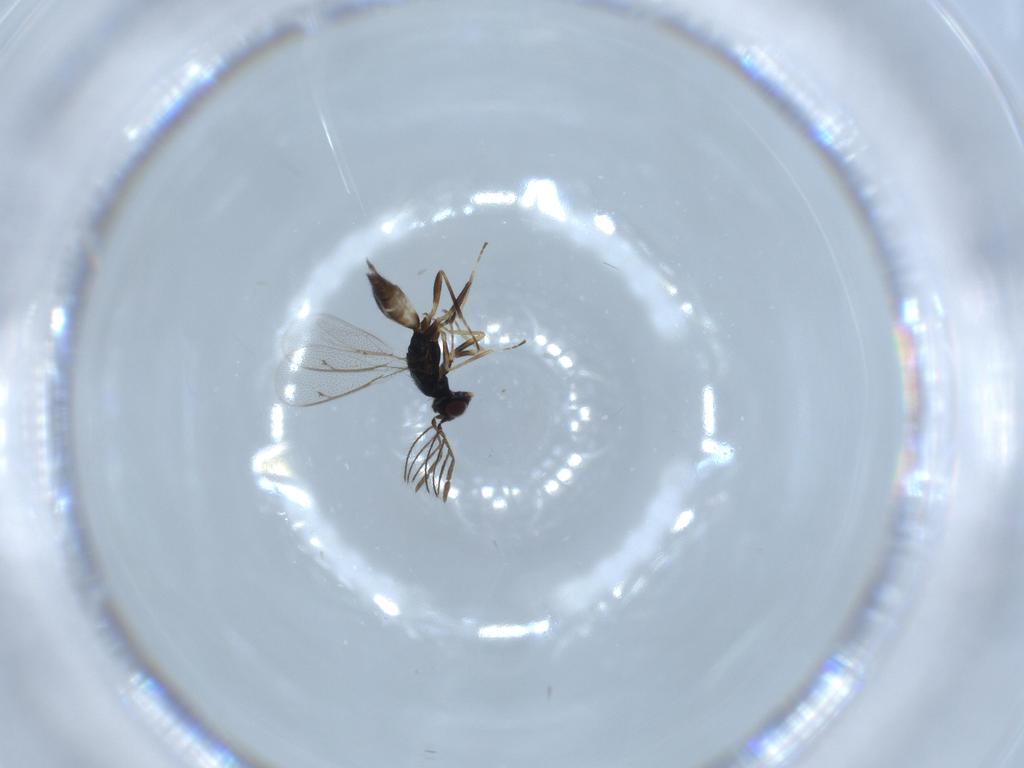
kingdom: Animalia
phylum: Arthropoda
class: Insecta
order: Hymenoptera
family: Eulophidae
